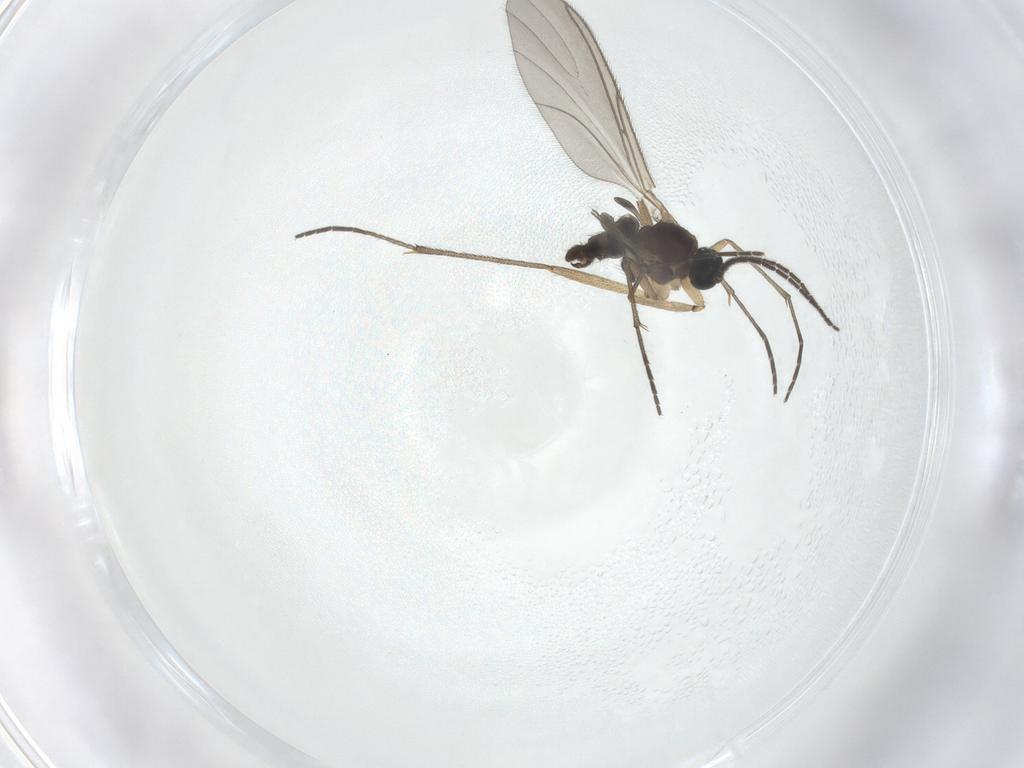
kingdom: Animalia
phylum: Arthropoda
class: Insecta
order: Diptera
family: Sciaridae
